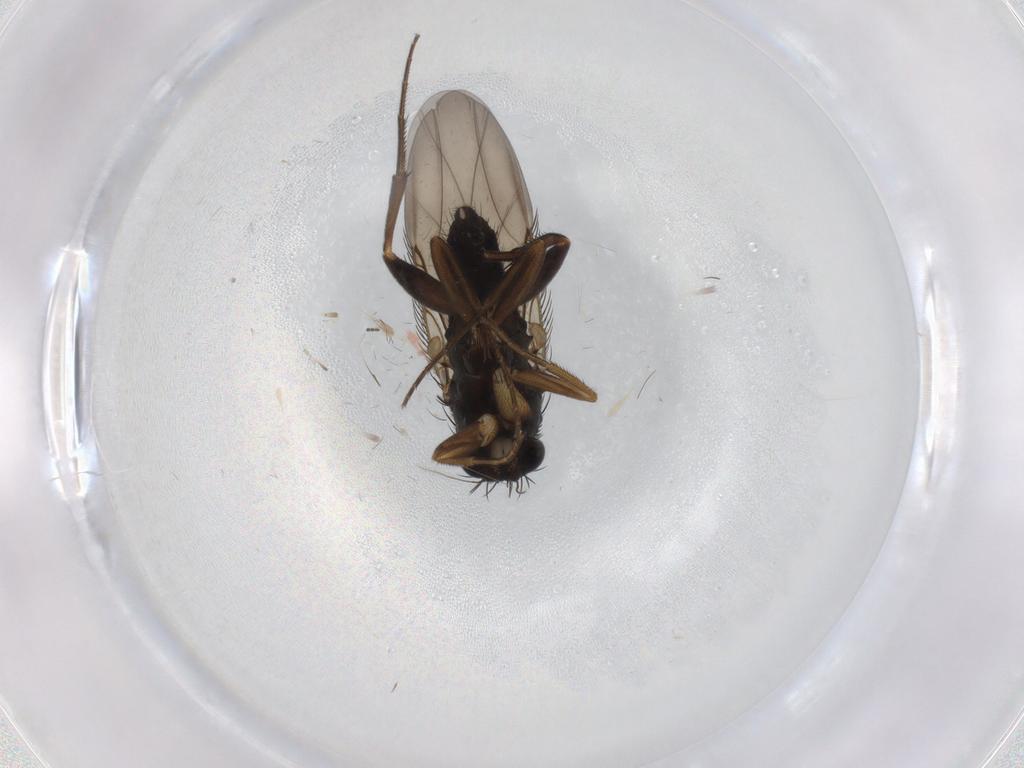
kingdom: Animalia
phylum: Arthropoda
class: Insecta
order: Diptera
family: Phoridae
